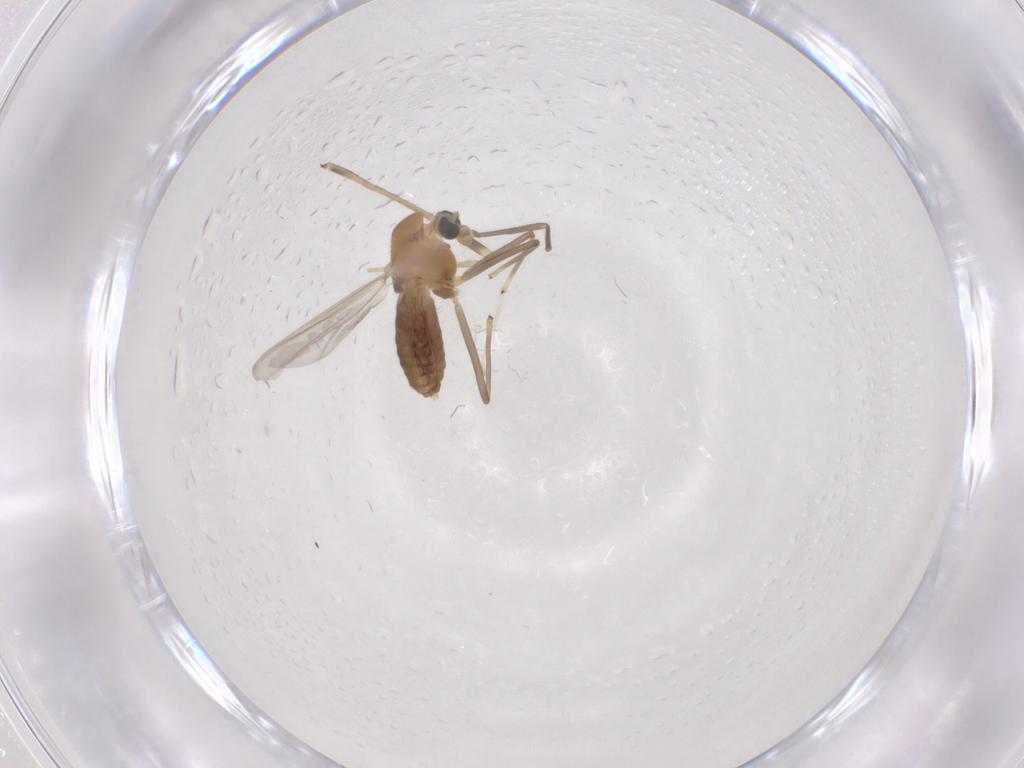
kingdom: Animalia
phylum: Arthropoda
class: Insecta
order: Diptera
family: Chironomidae
